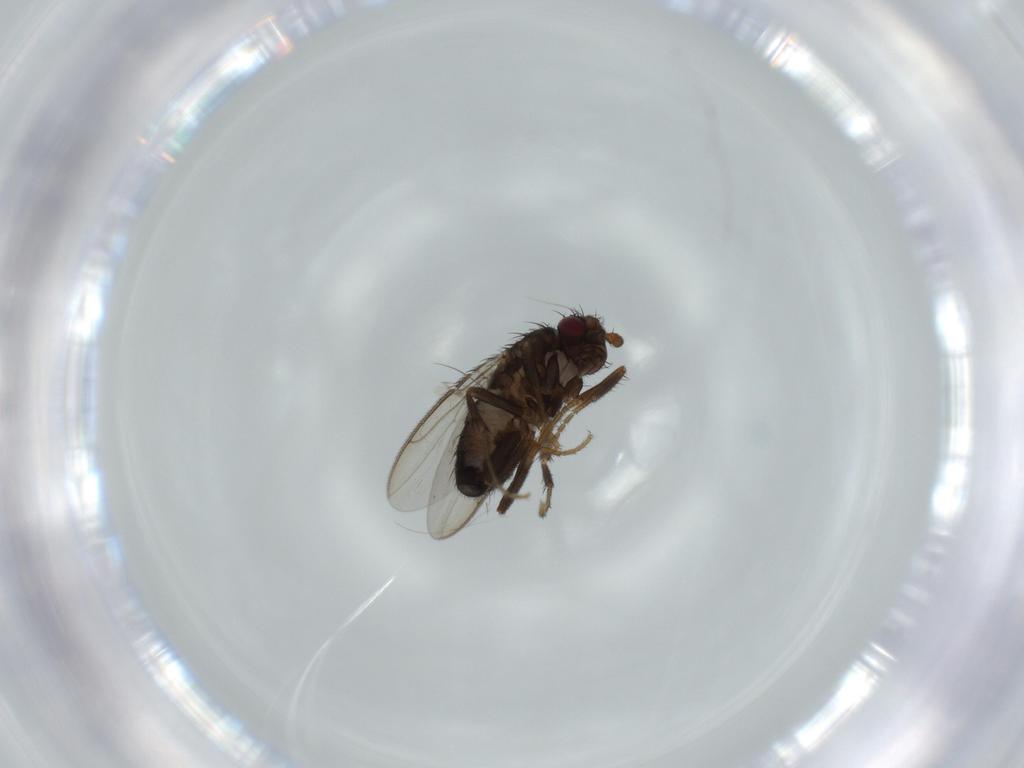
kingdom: Animalia
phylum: Arthropoda
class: Insecta
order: Diptera
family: Sphaeroceridae
